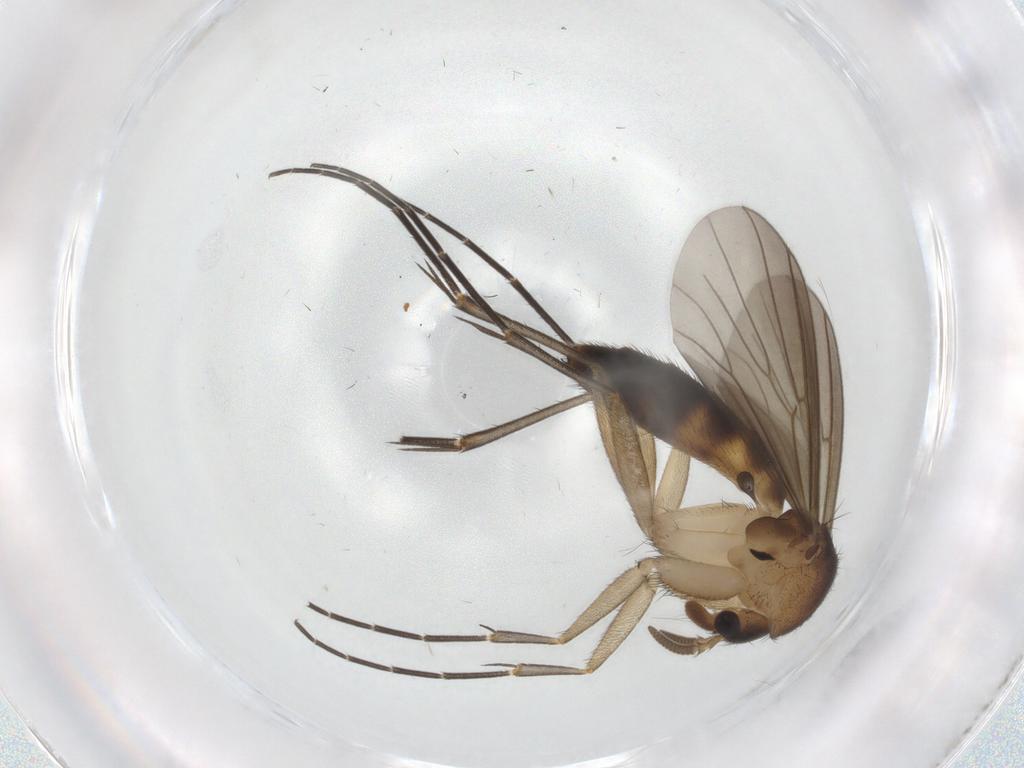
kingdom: Animalia
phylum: Arthropoda
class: Insecta
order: Diptera
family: Mycetophilidae
